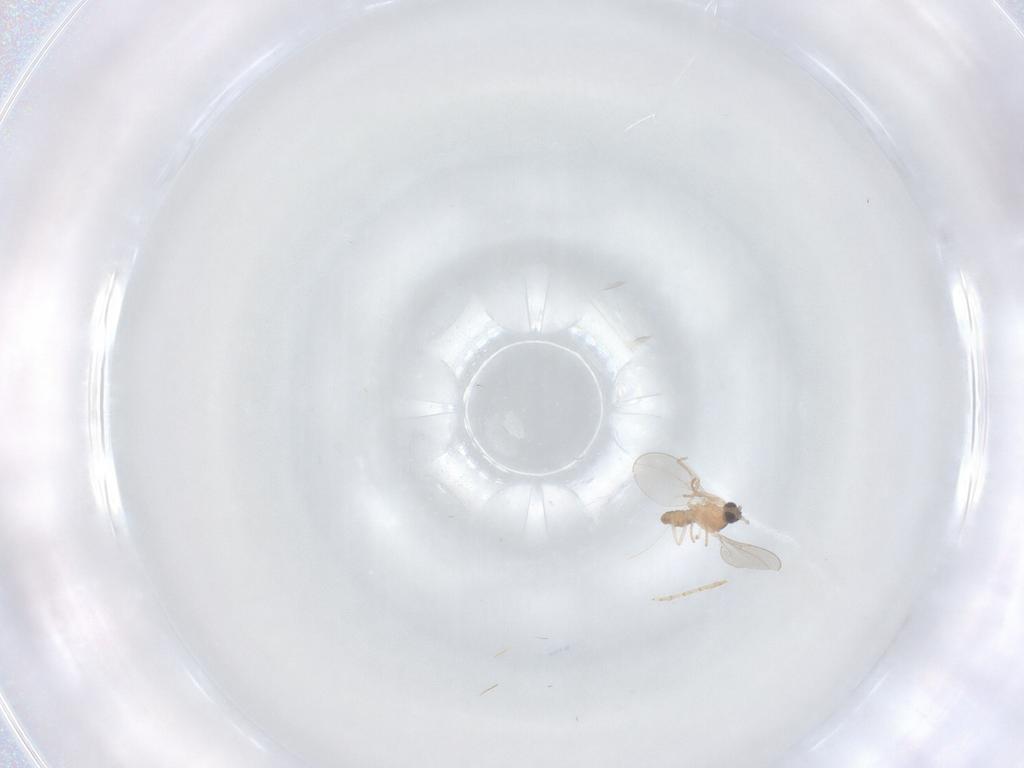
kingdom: Animalia
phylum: Arthropoda
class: Insecta
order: Diptera
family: Cecidomyiidae
